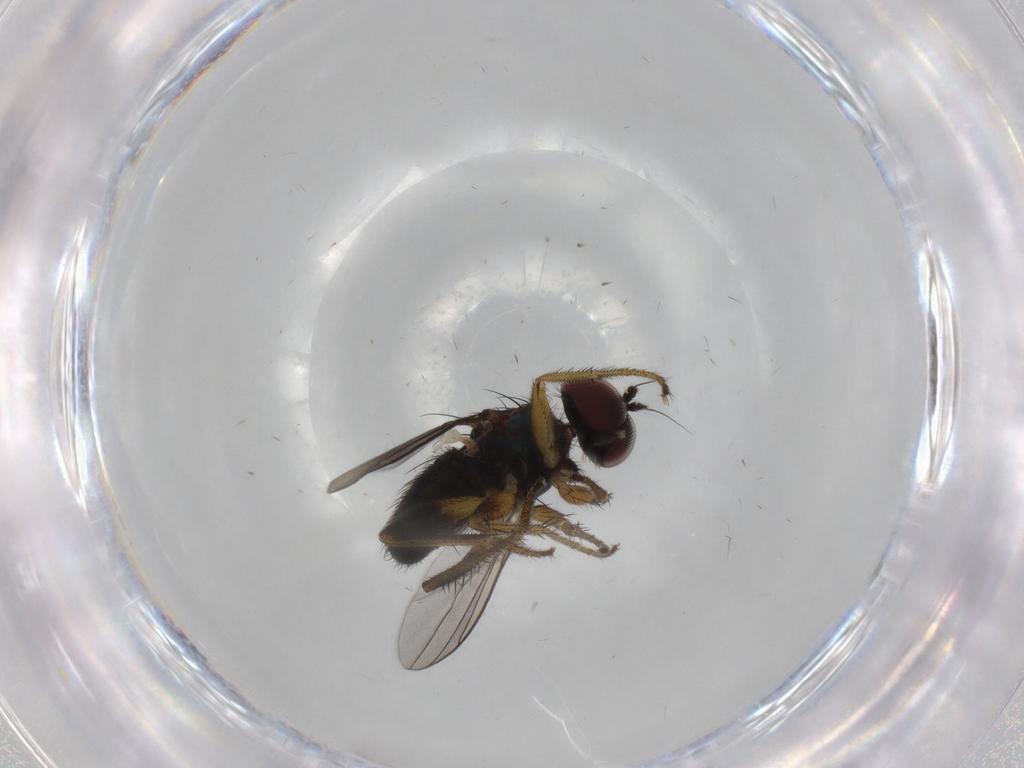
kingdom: Animalia
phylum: Arthropoda
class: Insecta
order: Diptera
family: Dolichopodidae
